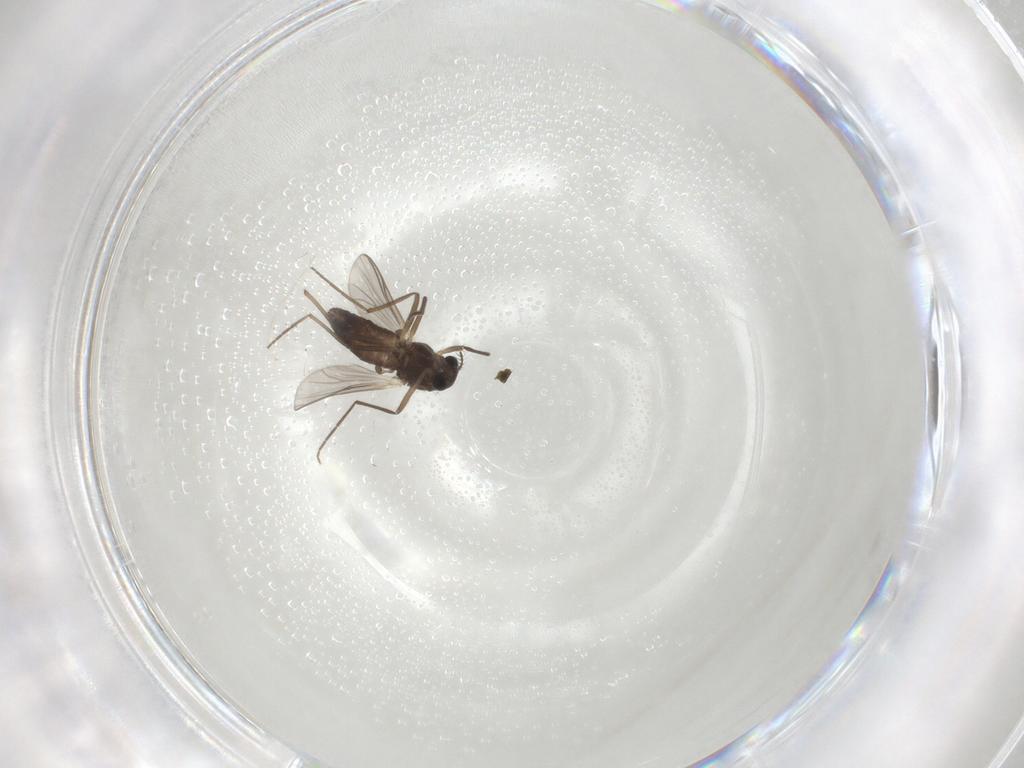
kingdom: Animalia
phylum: Arthropoda
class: Insecta
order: Diptera
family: Chironomidae
